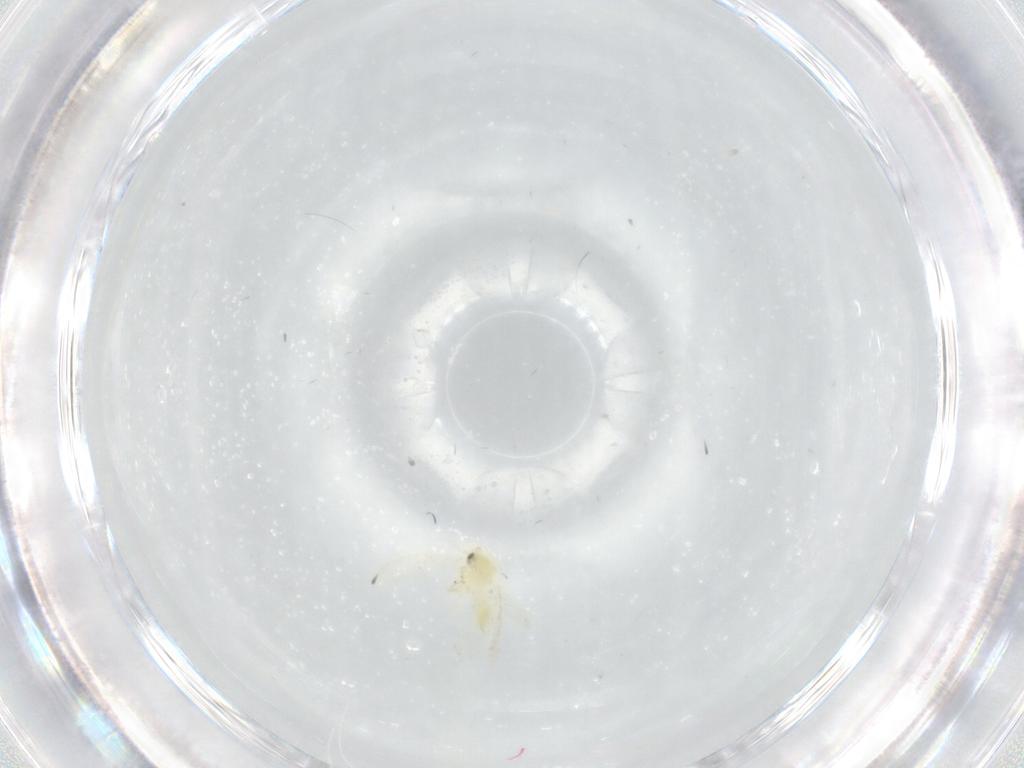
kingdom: Animalia
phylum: Arthropoda
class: Insecta
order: Hemiptera
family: Aleyrodidae
